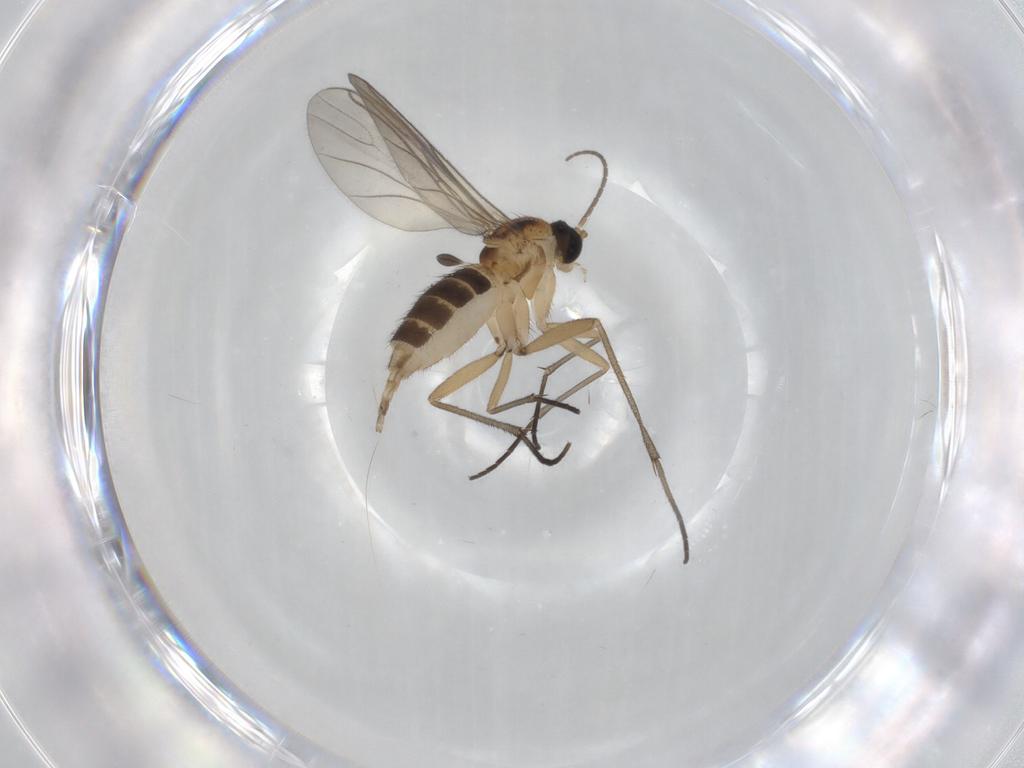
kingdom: Animalia
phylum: Arthropoda
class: Insecta
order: Diptera
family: Sciaridae
